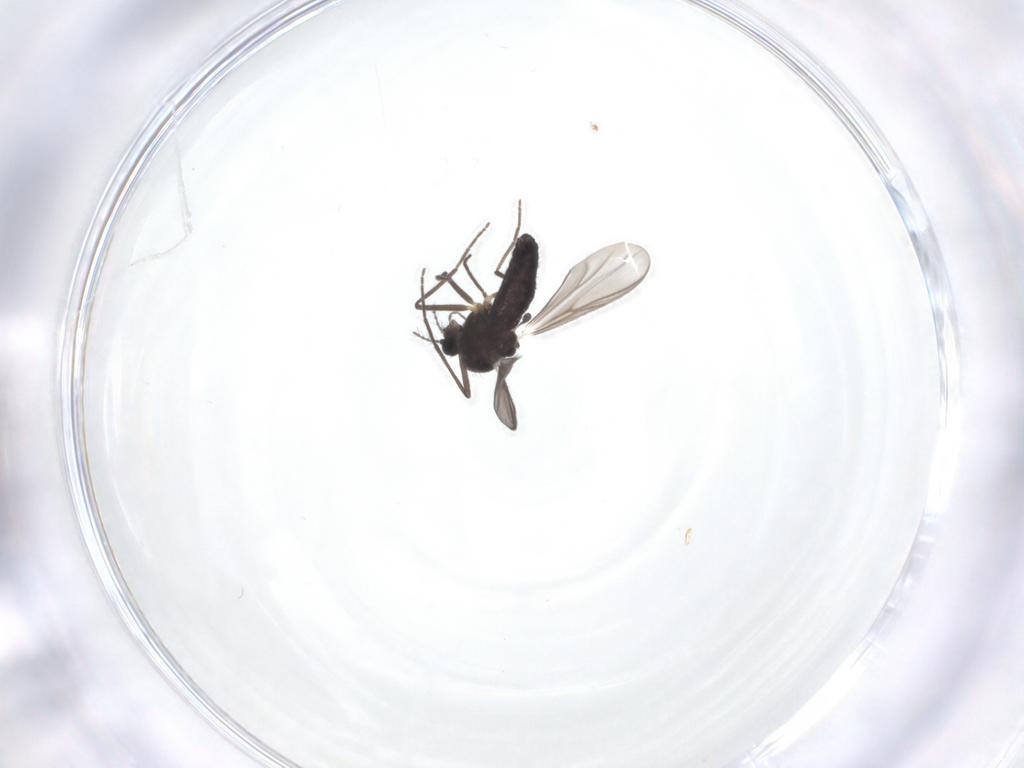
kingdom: Animalia
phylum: Arthropoda
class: Insecta
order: Diptera
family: Chironomidae
